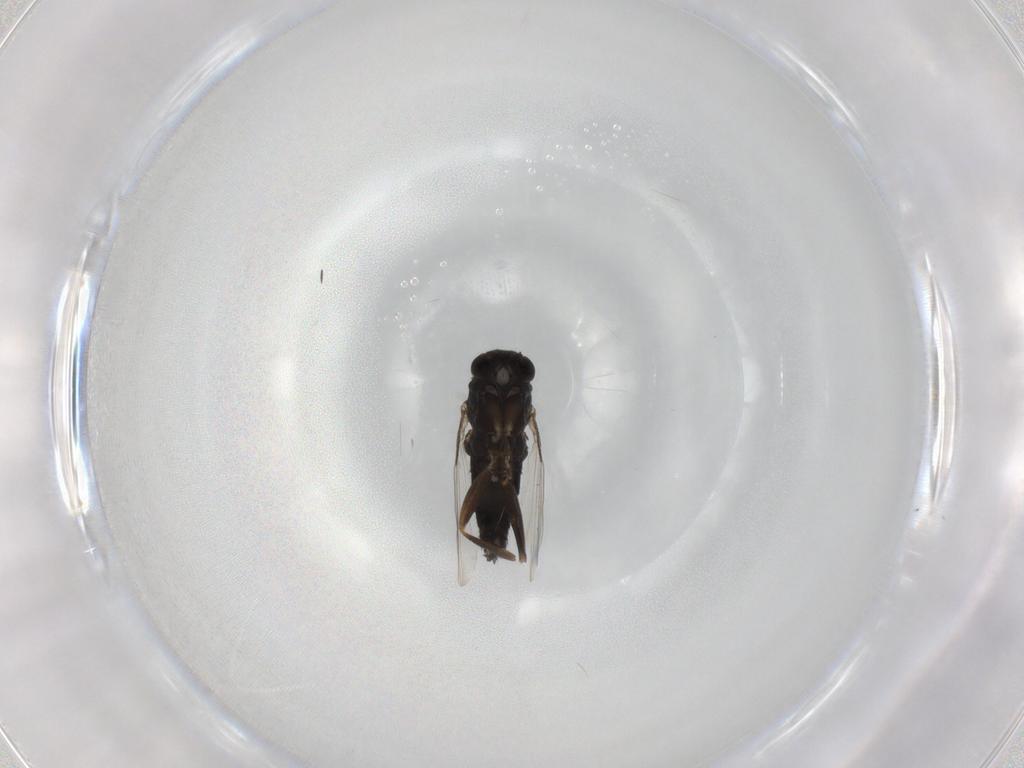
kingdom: Animalia
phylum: Arthropoda
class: Insecta
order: Diptera
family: Phoridae
